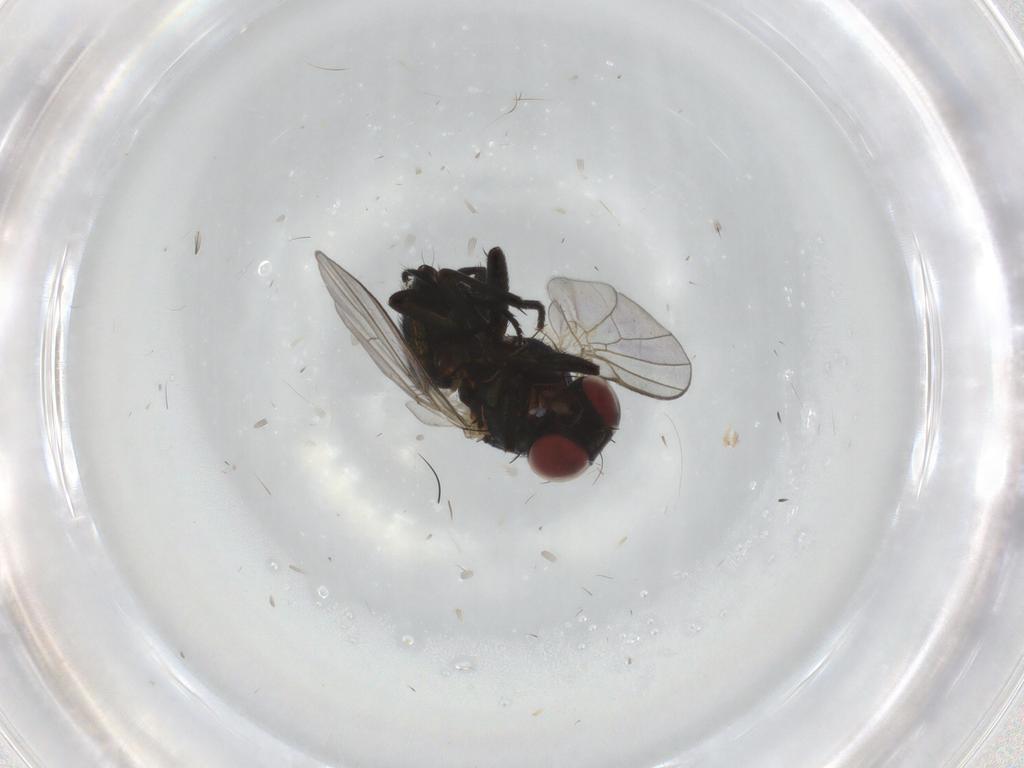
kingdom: Animalia
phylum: Arthropoda
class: Insecta
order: Diptera
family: Agromyzidae
